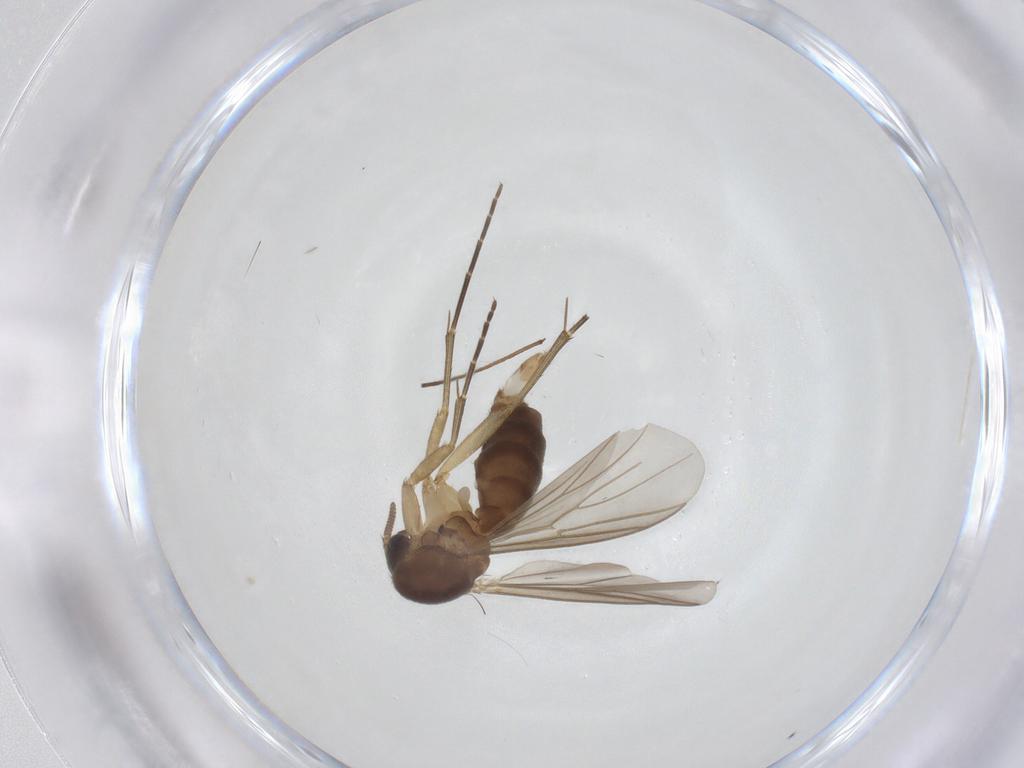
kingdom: Animalia
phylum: Arthropoda
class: Insecta
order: Diptera
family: Mycetophilidae
